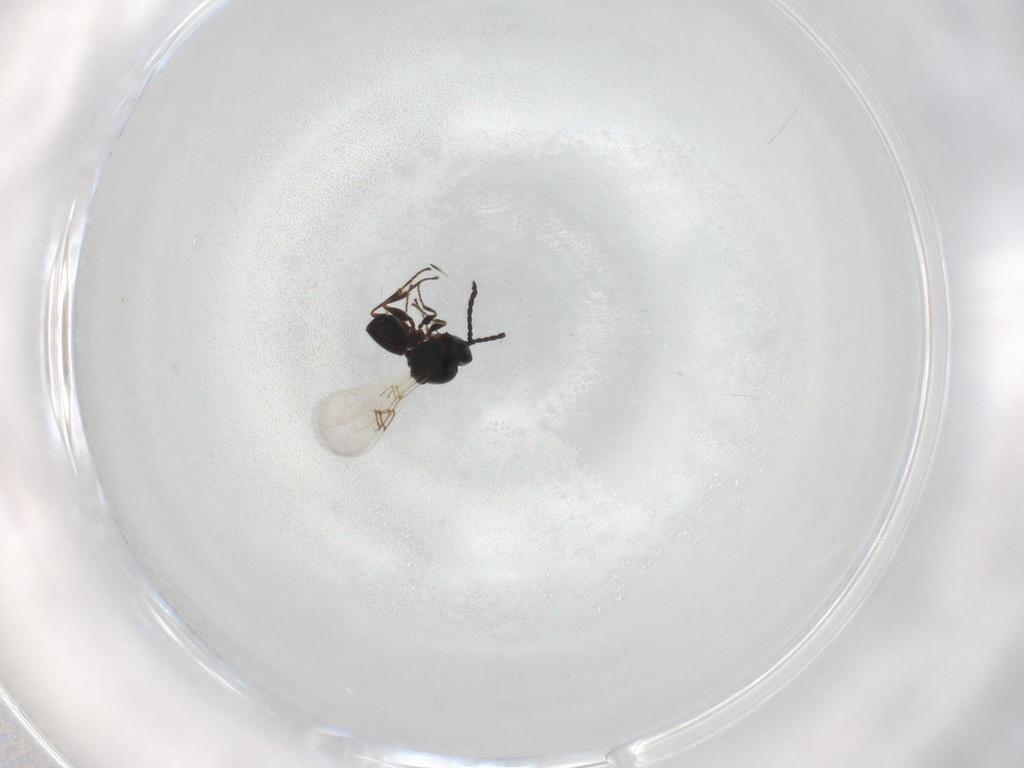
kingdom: Animalia
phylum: Arthropoda
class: Insecta
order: Hymenoptera
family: Figitidae
